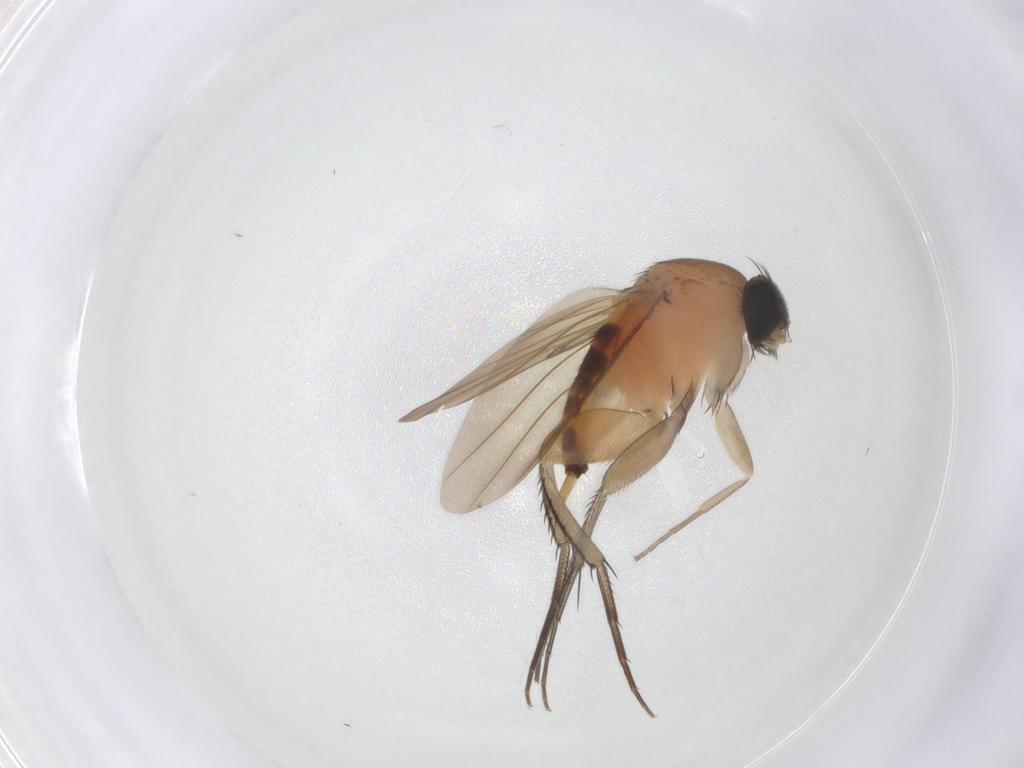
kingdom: Animalia
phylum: Arthropoda
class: Insecta
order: Diptera
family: Phoridae
